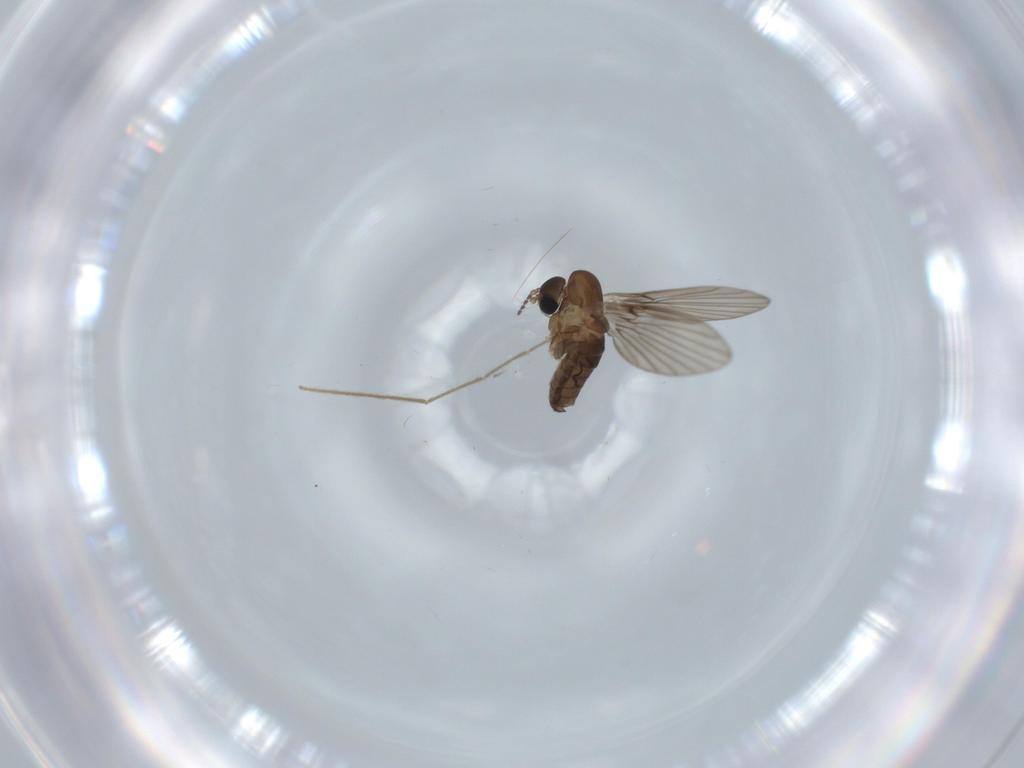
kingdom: Animalia
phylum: Arthropoda
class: Insecta
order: Diptera
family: Psychodidae
